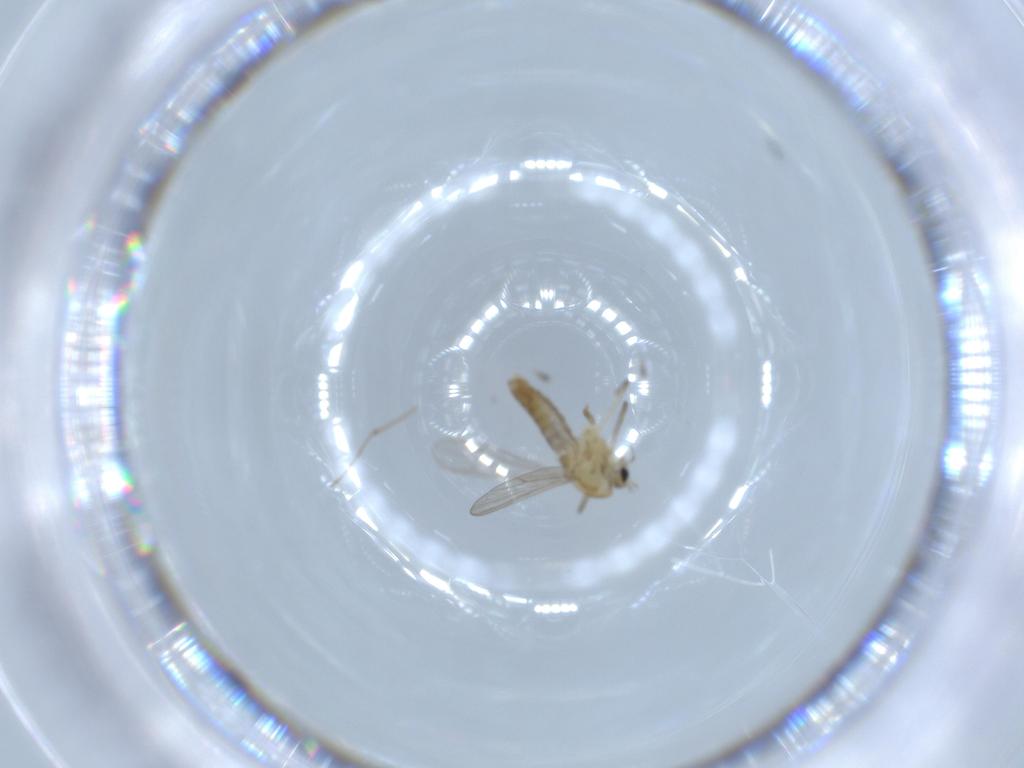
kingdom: Animalia
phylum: Arthropoda
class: Insecta
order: Diptera
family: Chironomidae
